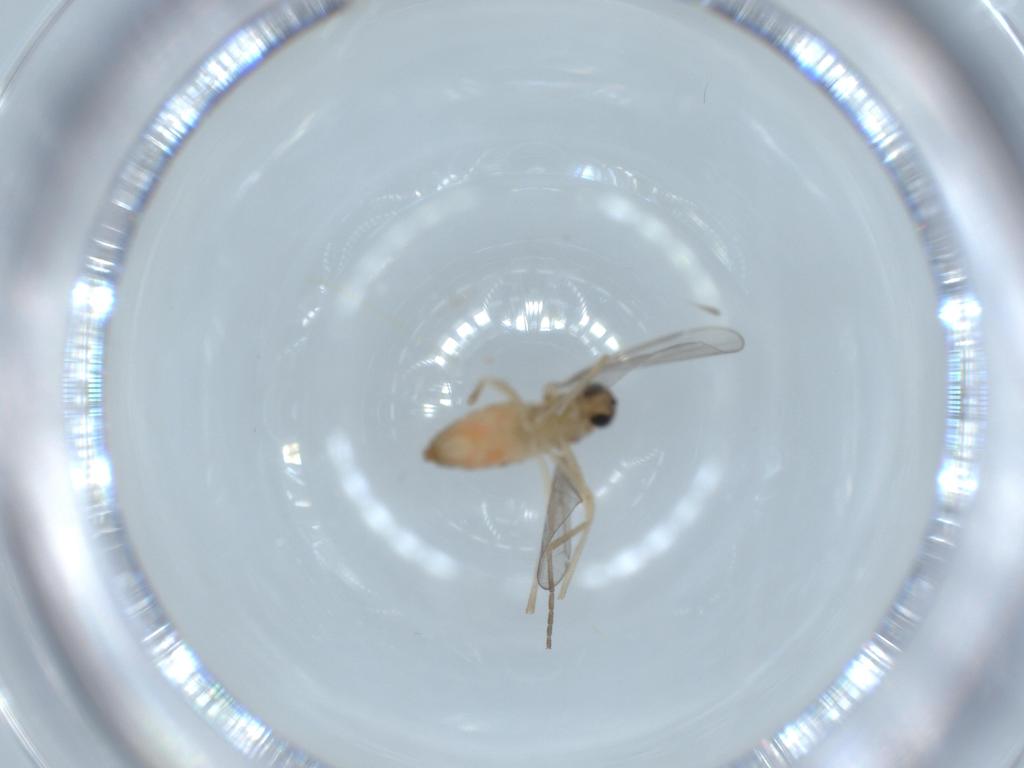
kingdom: Animalia
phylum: Arthropoda
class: Insecta
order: Diptera
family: Cecidomyiidae
